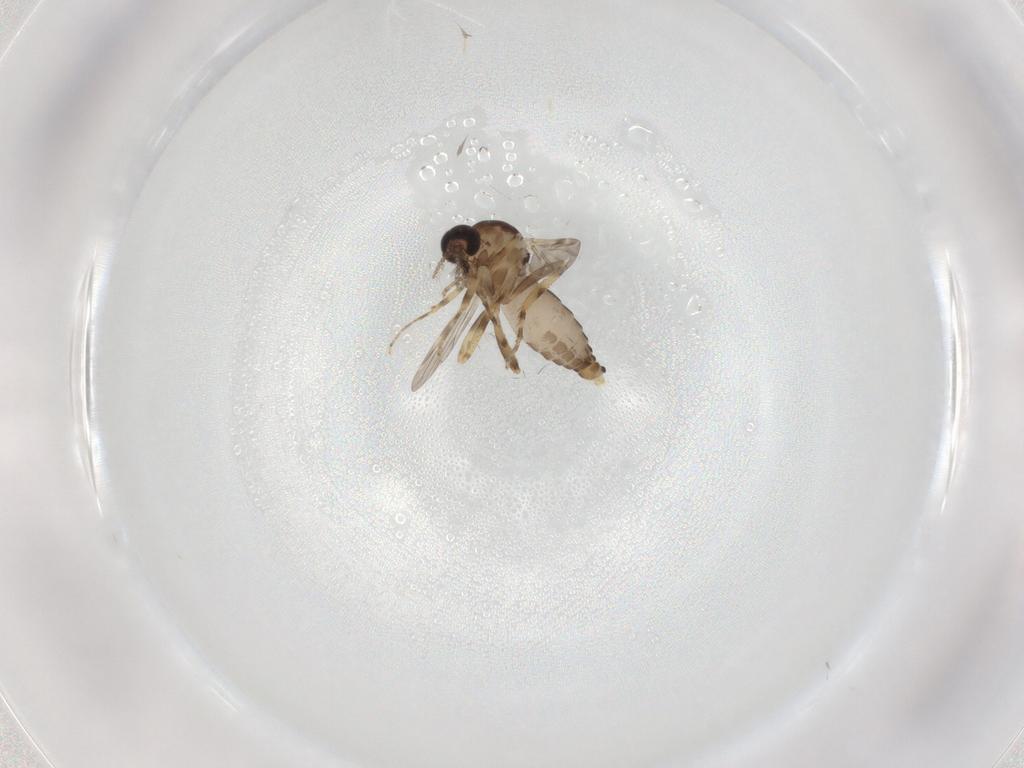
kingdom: Animalia
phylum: Arthropoda
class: Insecta
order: Diptera
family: Ceratopogonidae
